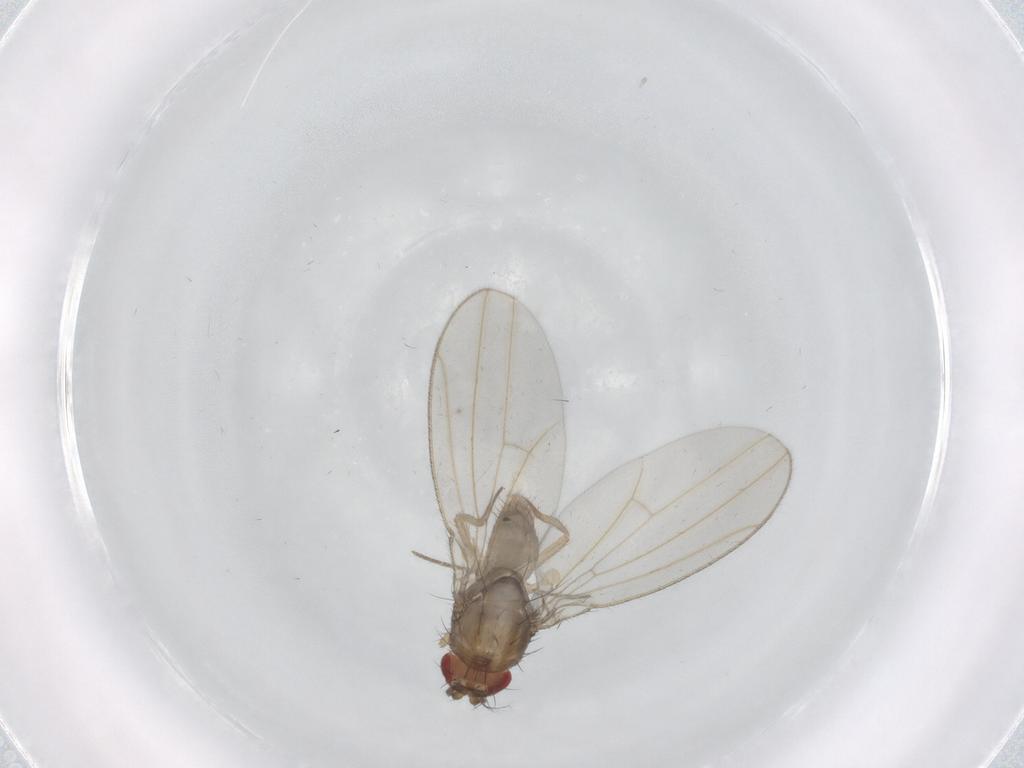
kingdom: Animalia
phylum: Arthropoda
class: Insecta
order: Diptera
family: Drosophilidae
